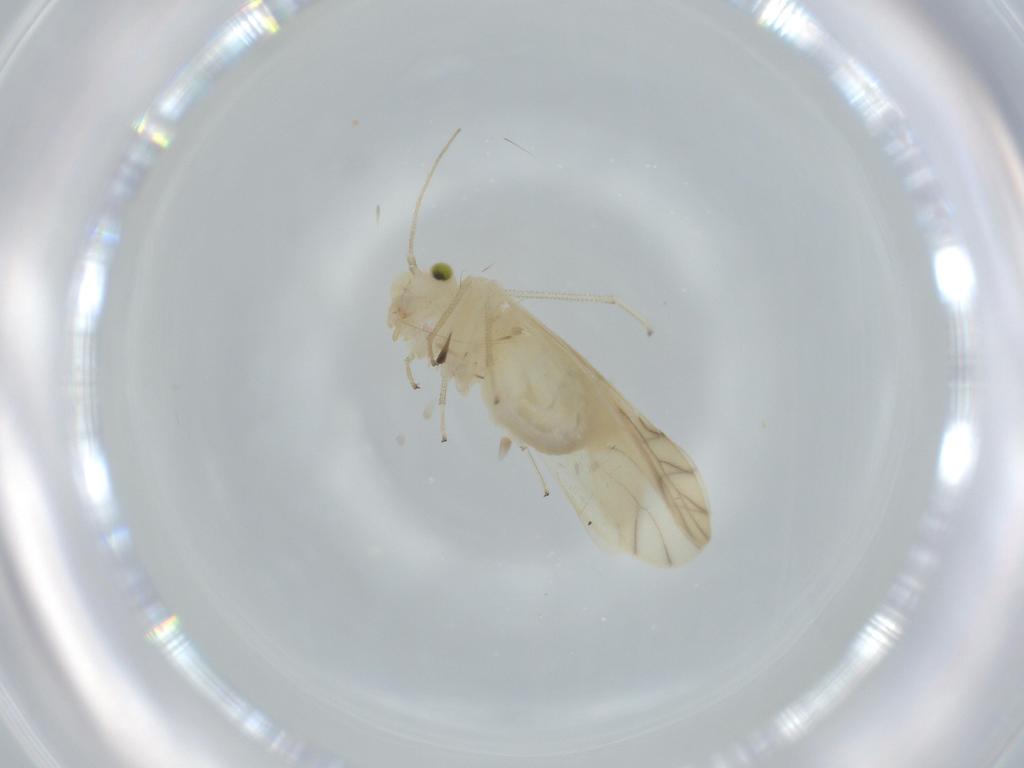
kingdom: Animalia
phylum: Arthropoda
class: Insecta
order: Psocodea
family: Caeciliusidae
